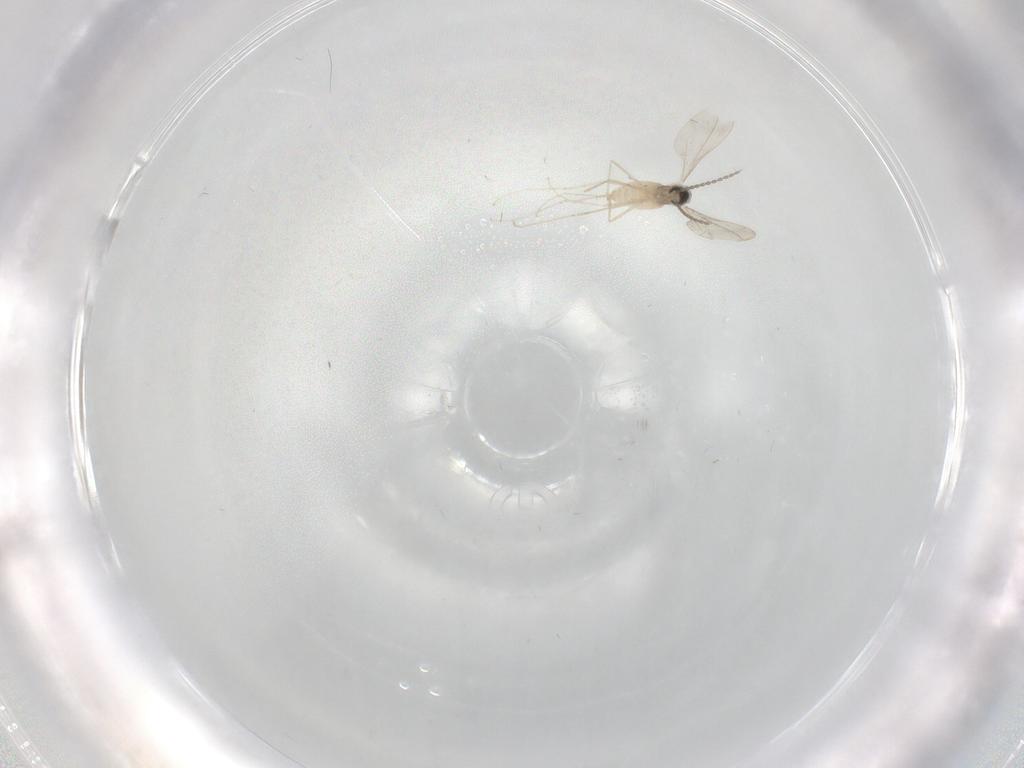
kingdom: Animalia
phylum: Arthropoda
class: Insecta
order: Diptera
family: Cecidomyiidae
